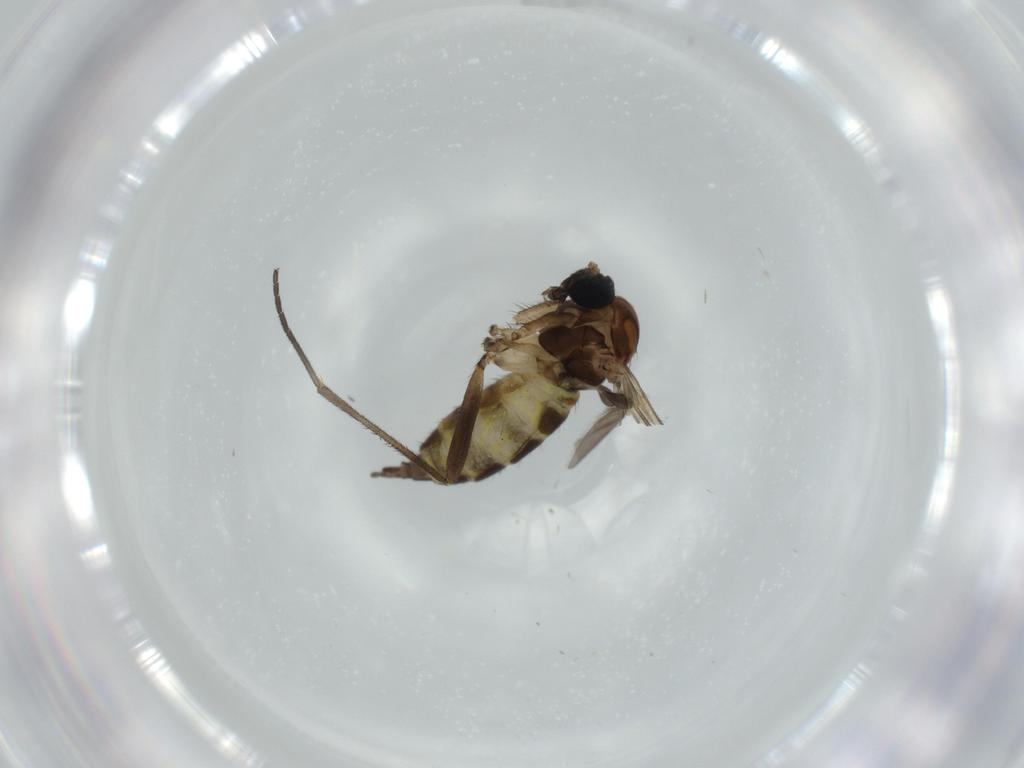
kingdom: Animalia
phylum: Arthropoda
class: Insecta
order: Diptera
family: Sciaridae
